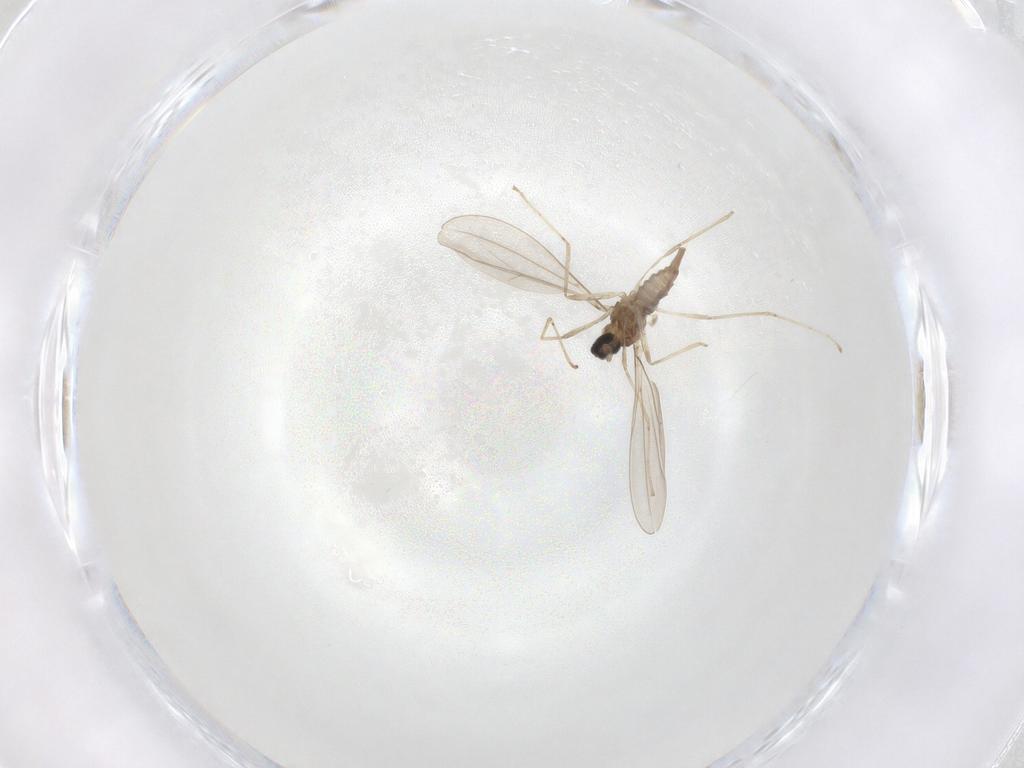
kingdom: Animalia
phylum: Arthropoda
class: Insecta
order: Diptera
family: Cecidomyiidae
